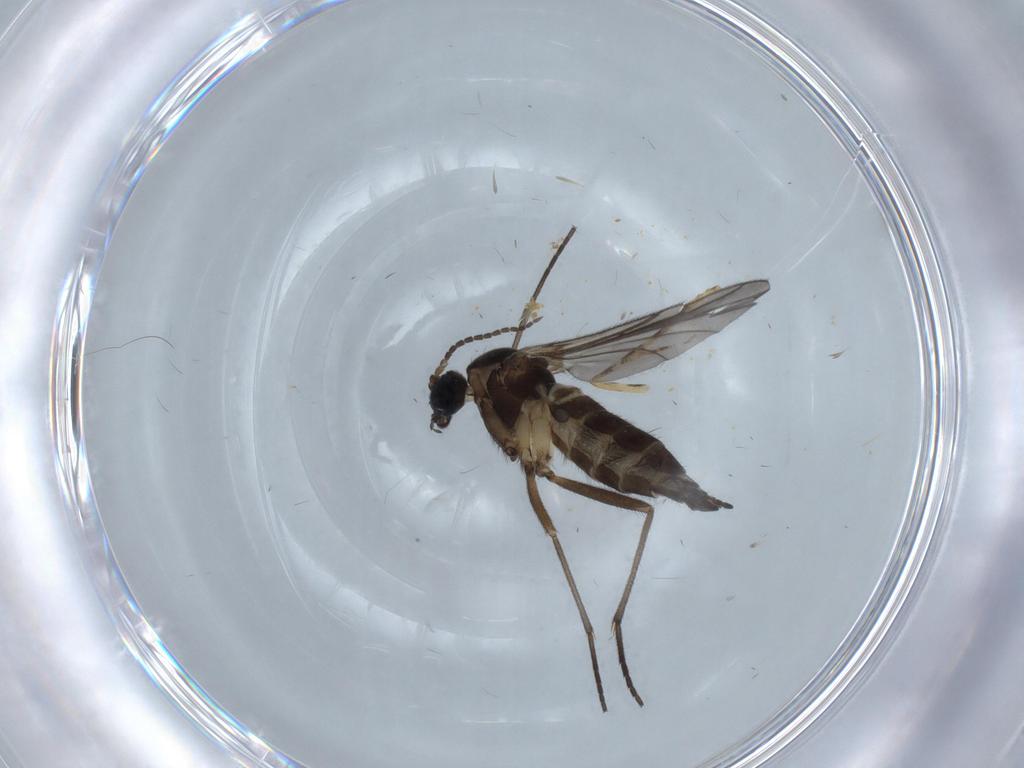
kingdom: Animalia
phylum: Arthropoda
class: Insecta
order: Diptera
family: Sciaridae
